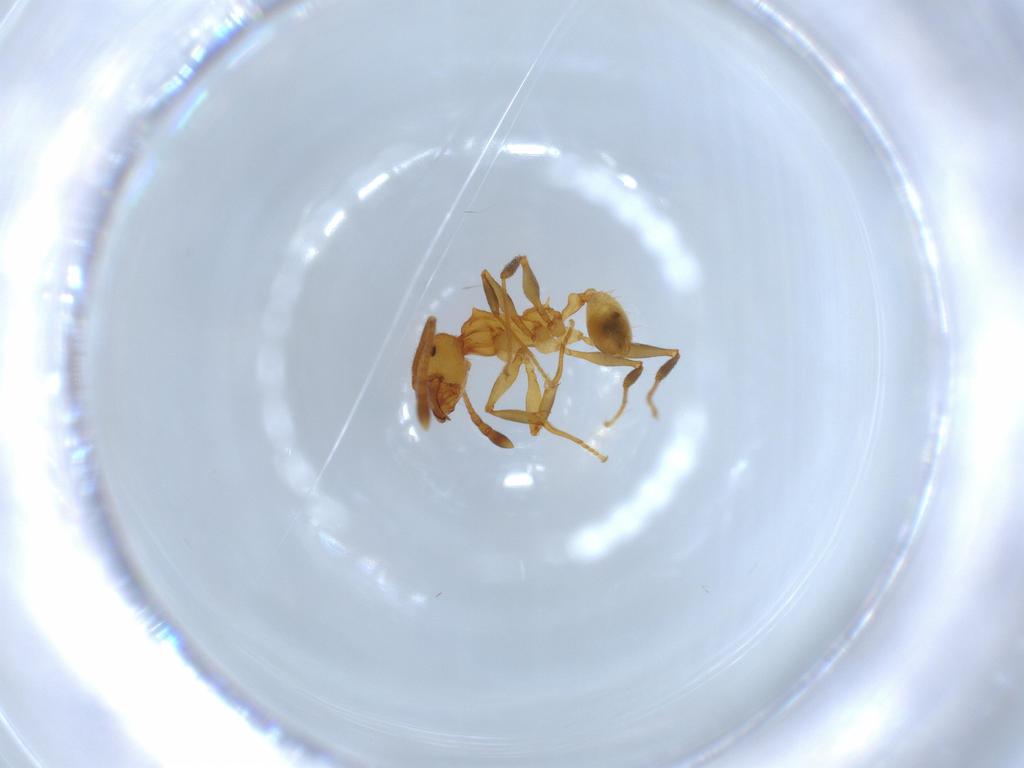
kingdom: Animalia
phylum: Arthropoda
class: Insecta
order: Hymenoptera
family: Formicidae
